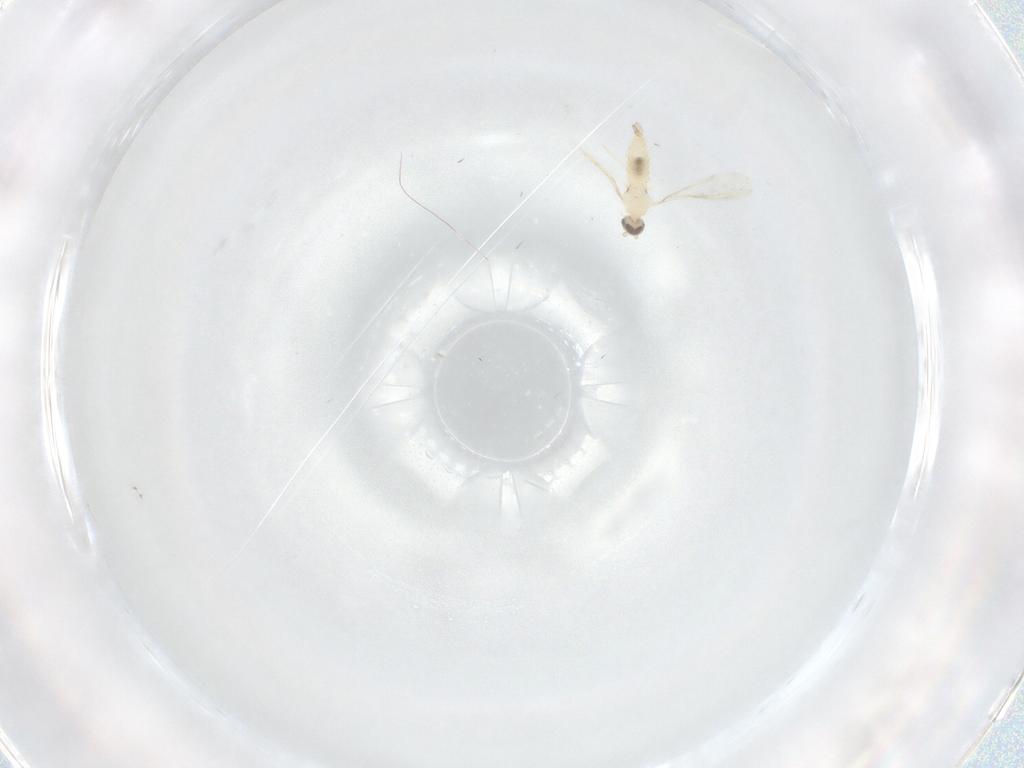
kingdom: Animalia
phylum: Arthropoda
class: Insecta
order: Diptera
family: Cecidomyiidae
